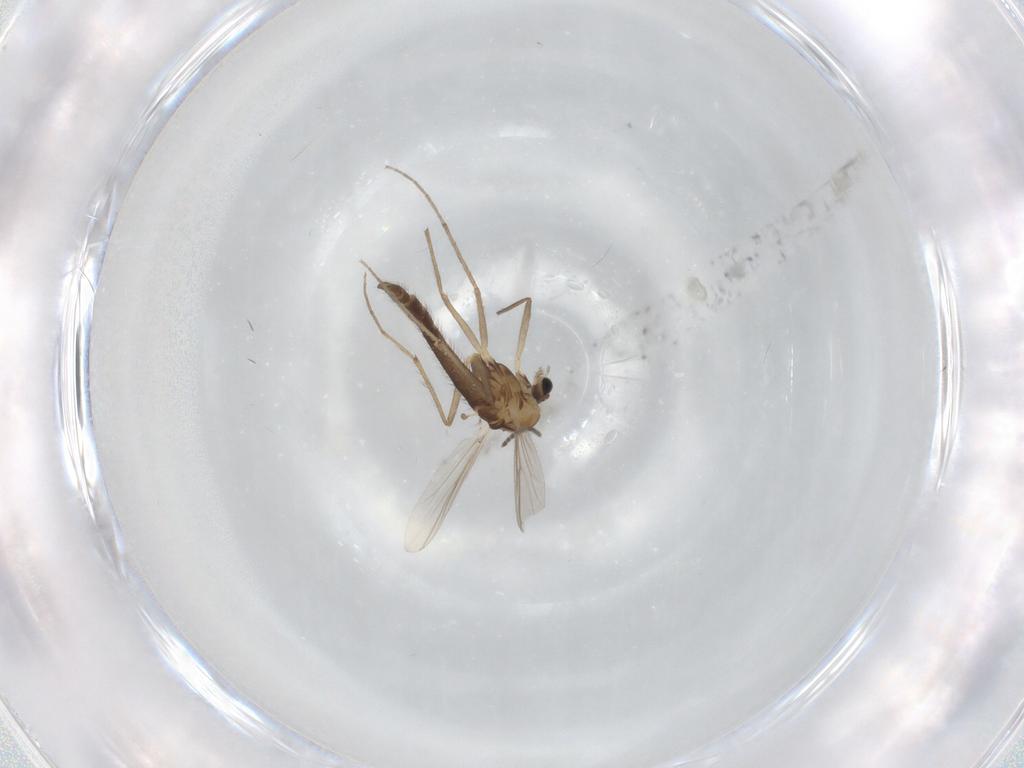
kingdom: Animalia
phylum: Arthropoda
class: Insecta
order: Diptera
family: Chironomidae
